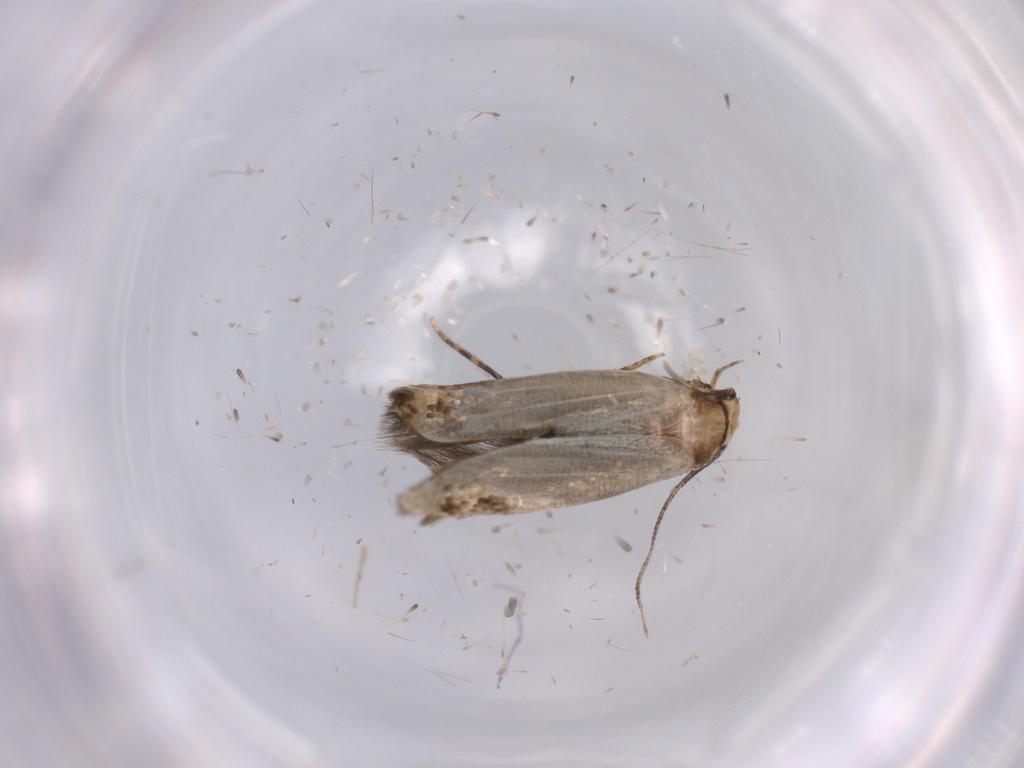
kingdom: Animalia
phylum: Arthropoda
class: Insecta
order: Lepidoptera
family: Tineidae
